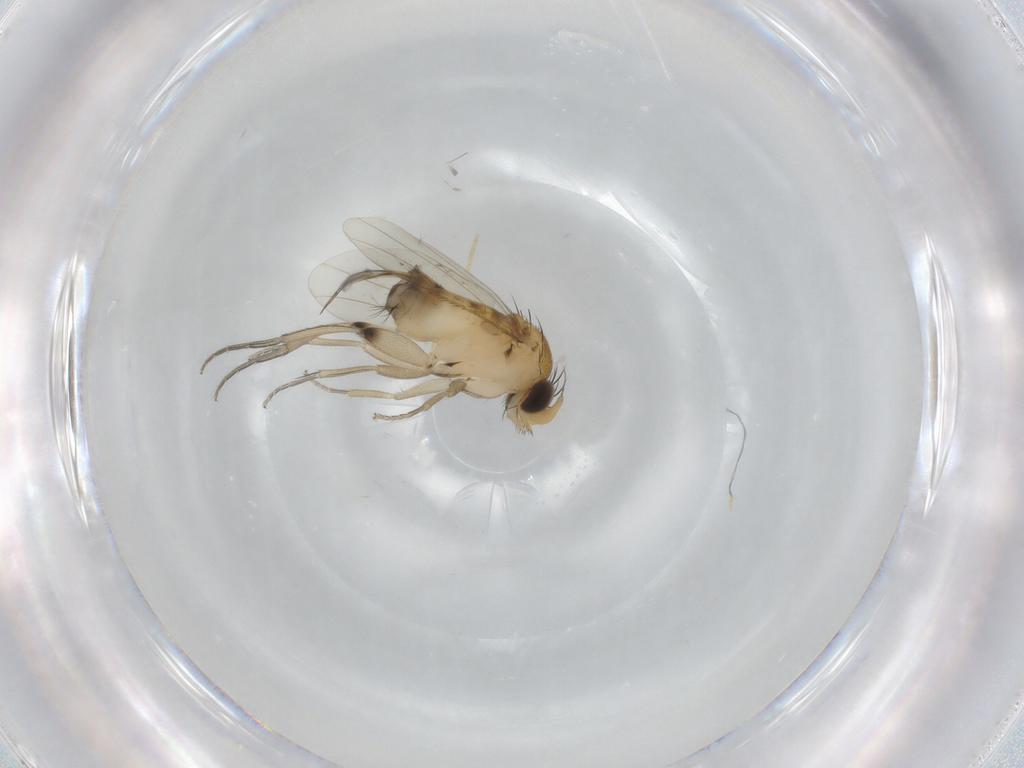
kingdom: Animalia
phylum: Arthropoda
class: Insecta
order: Diptera
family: Phoridae
